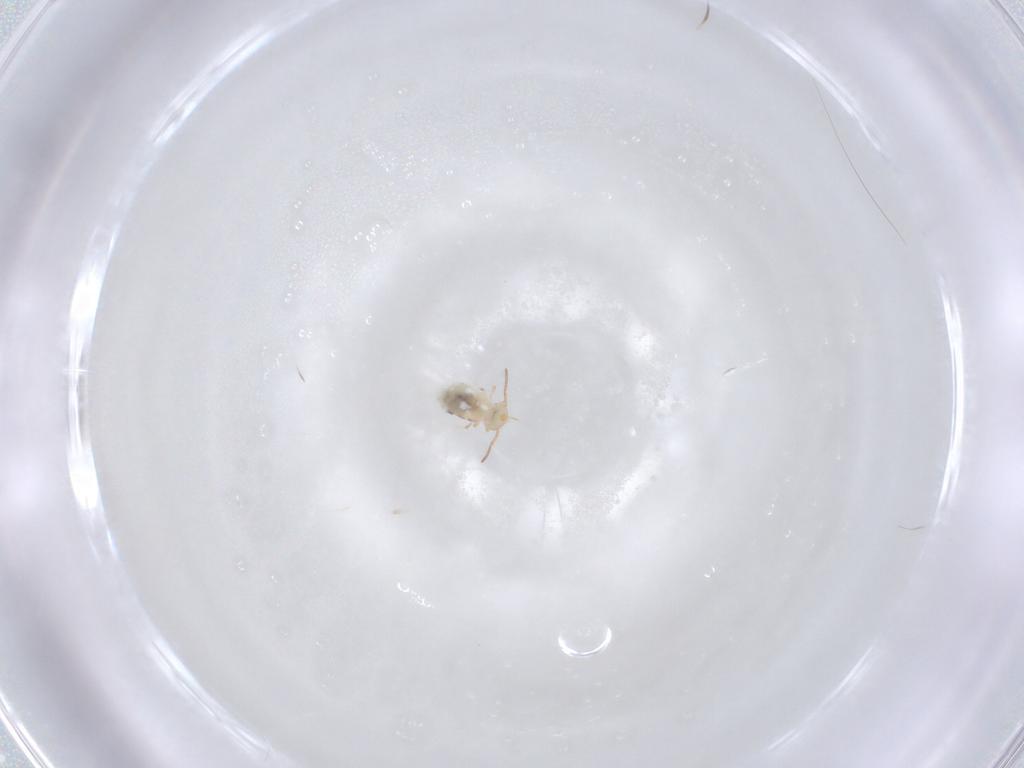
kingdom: Animalia
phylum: Arthropoda
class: Collembola
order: Symphypleona
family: Bourletiellidae
